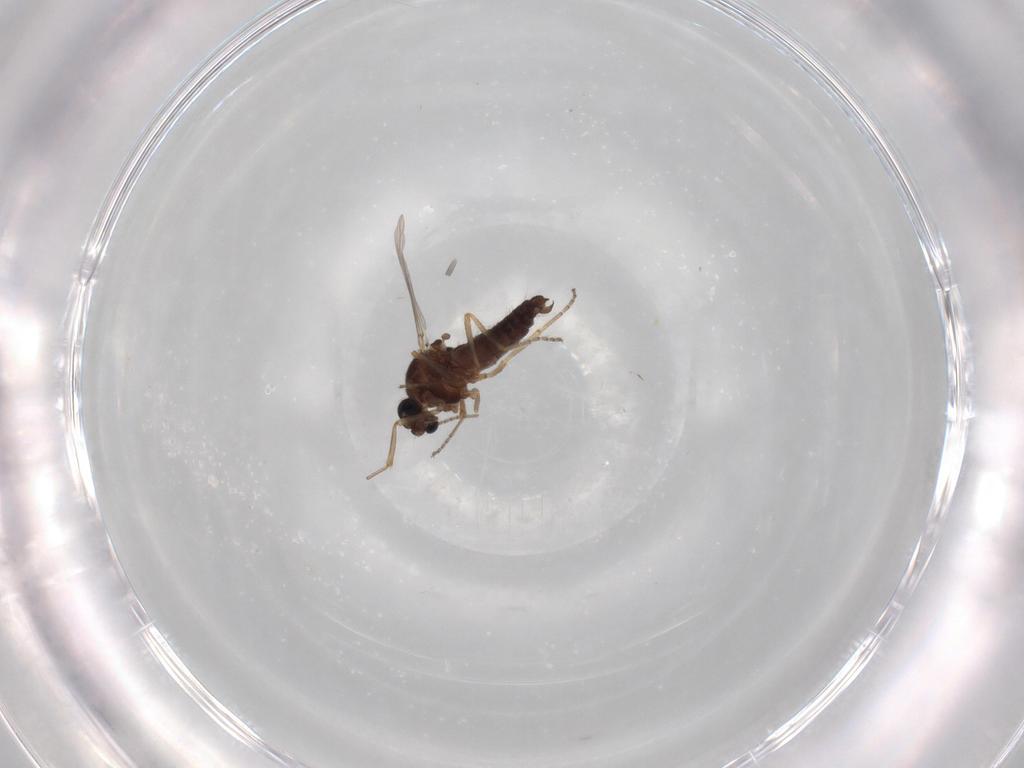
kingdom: Animalia
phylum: Arthropoda
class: Insecta
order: Diptera
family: Ceratopogonidae
